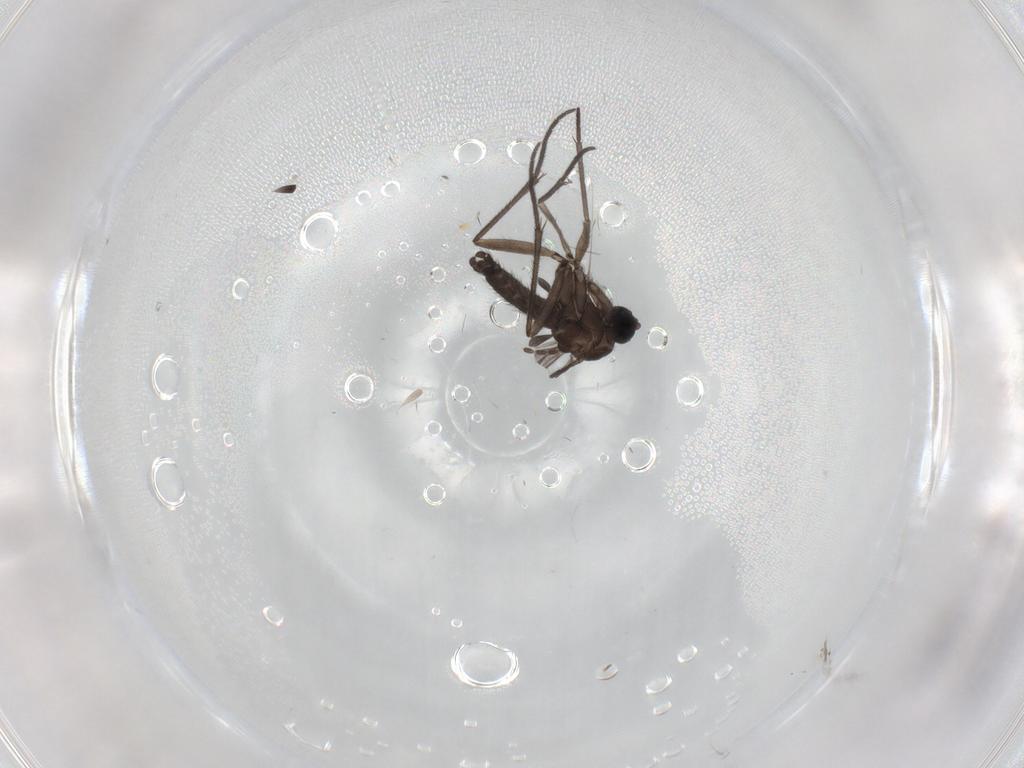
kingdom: Animalia
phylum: Arthropoda
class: Insecta
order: Diptera
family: Sciaridae
